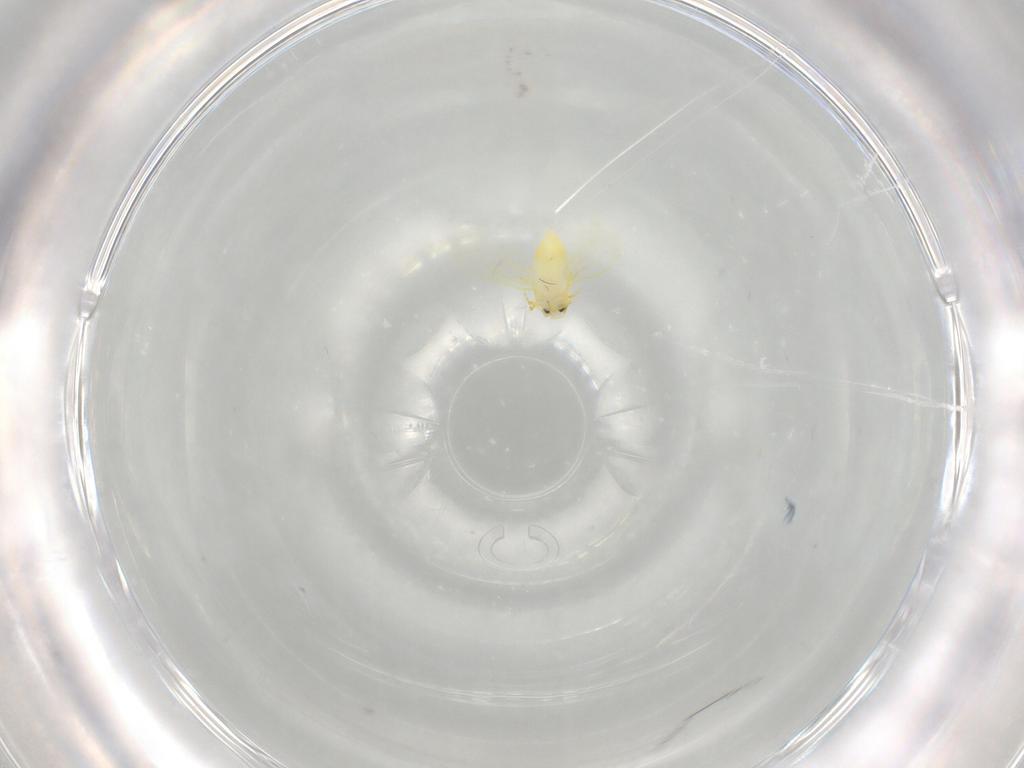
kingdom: Animalia
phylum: Arthropoda
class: Insecta
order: Hemiptera
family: Aleyrodidae
